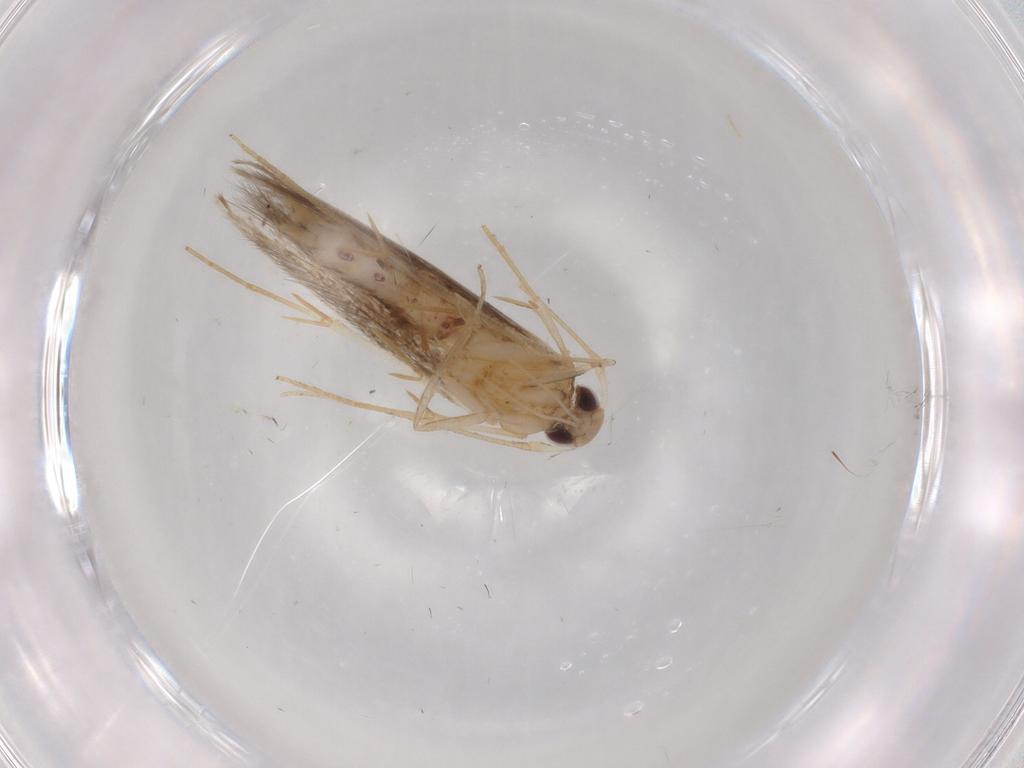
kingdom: Animalia
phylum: Arthropoda
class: Insecta
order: Lepidoptera
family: Cosmopterigidae
